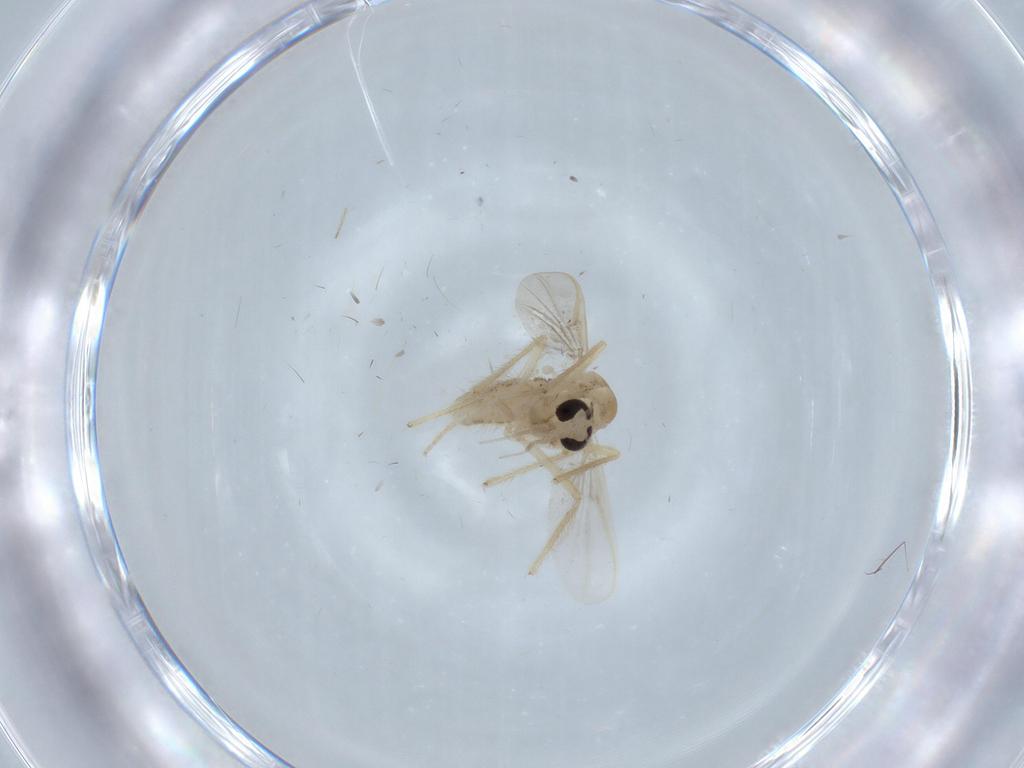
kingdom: Animalia
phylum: Arthropoda
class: Insecta
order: Diptera
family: Chironomidae
